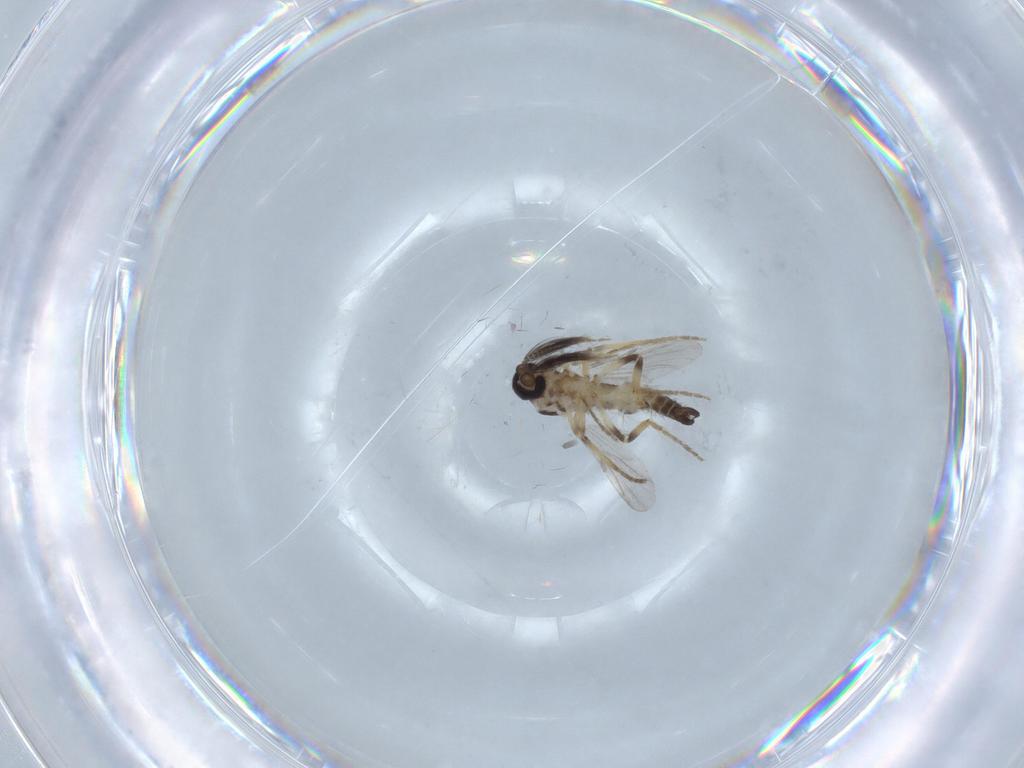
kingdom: Animalia
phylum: Arthropoda
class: Insecta
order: Diptera
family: Ceratopogonidae
